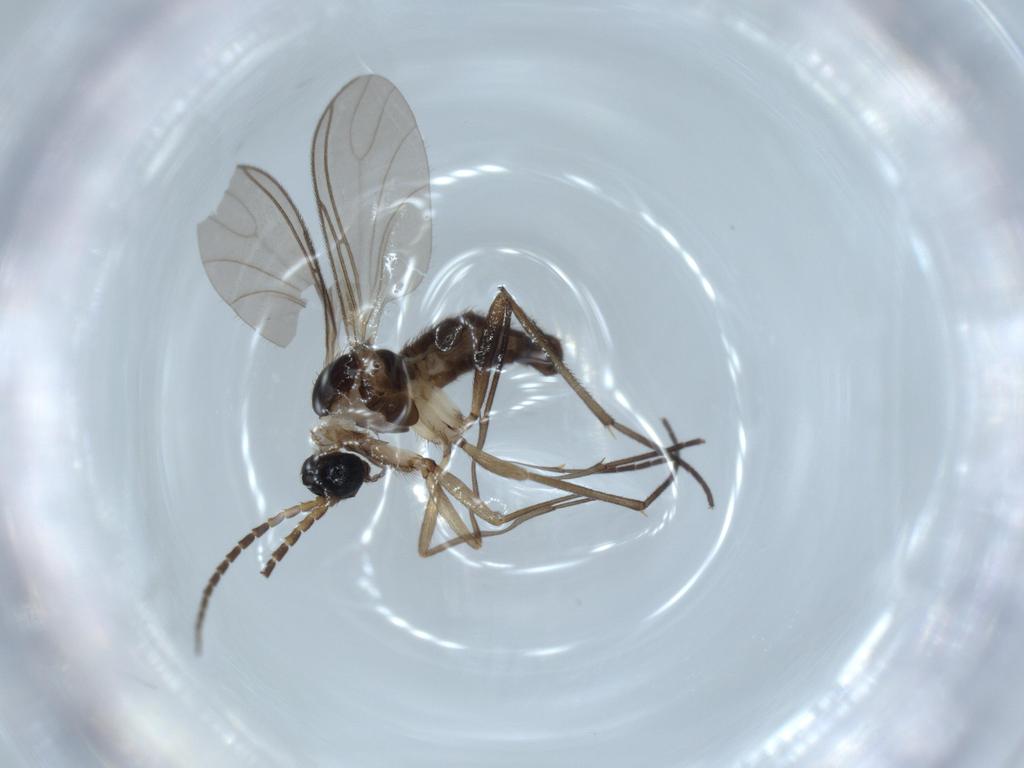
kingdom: Animalia
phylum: Arthropoda
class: Insecta
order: Diptera
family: Sciaridae
